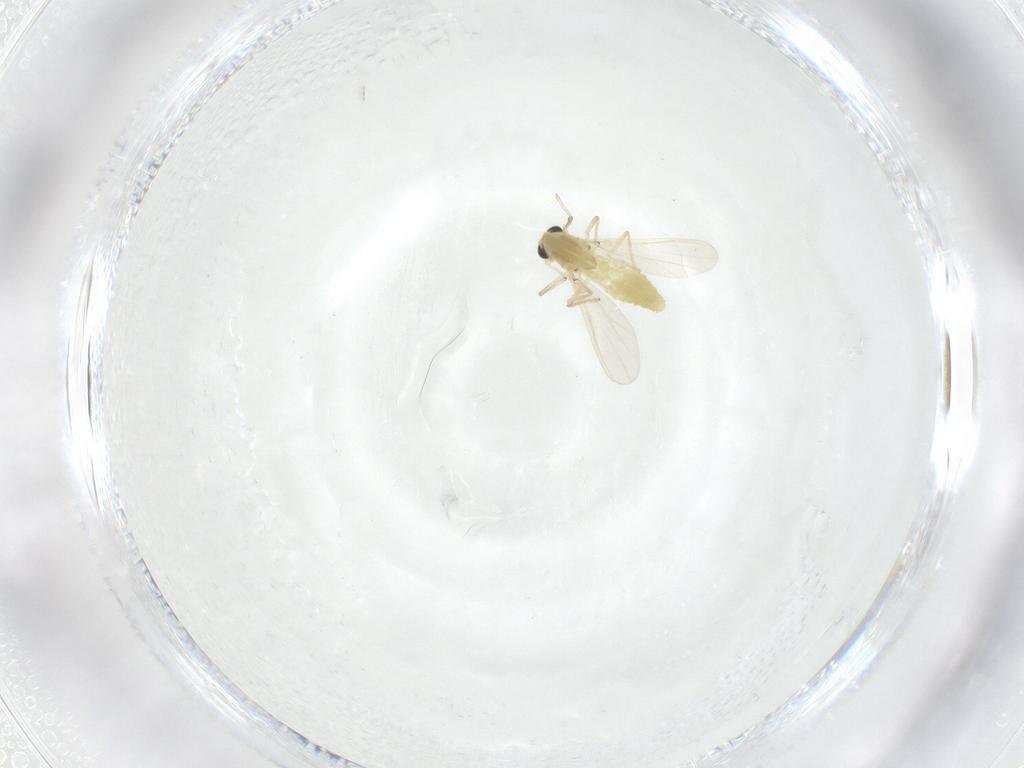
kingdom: Animalia
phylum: Arthropoda
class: Insecta
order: Diptera
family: Chironomidae
